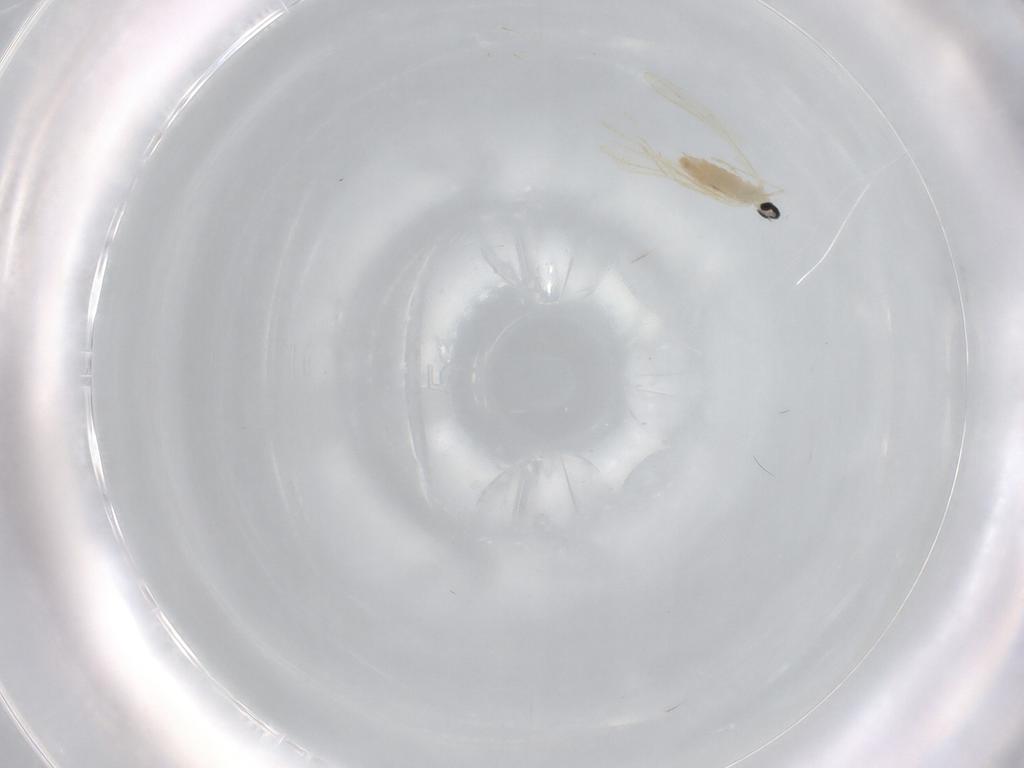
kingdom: Animalia
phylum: Arthropoda
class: Insecta
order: Diptera
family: Cecidomyiidae
